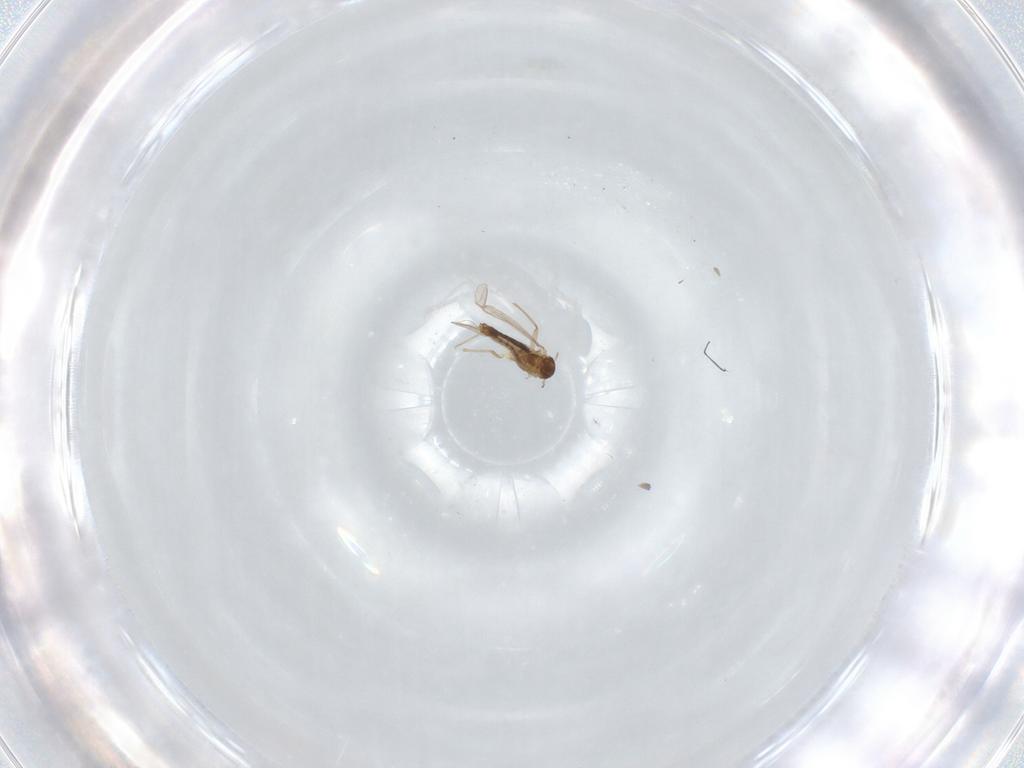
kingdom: Animalia
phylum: Arthropoda
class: Insecta
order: Diptera
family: Chironomidae
